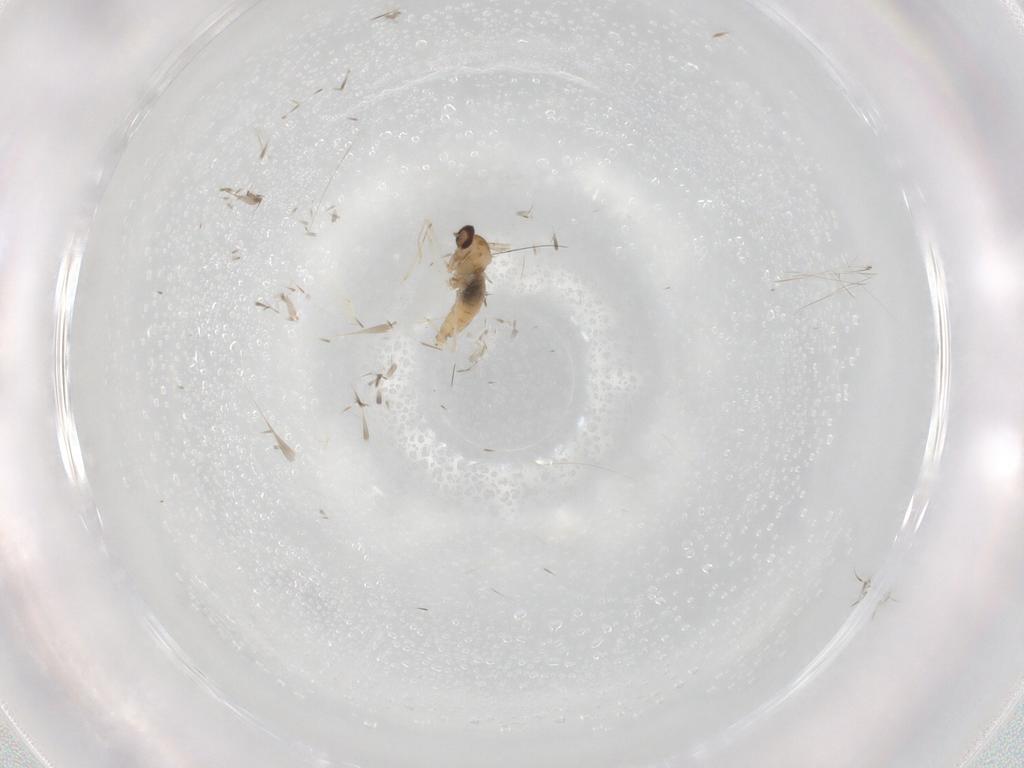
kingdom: Animalia
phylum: Arthropoda
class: Insecta
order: Diptera
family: Cecidomyiidae
